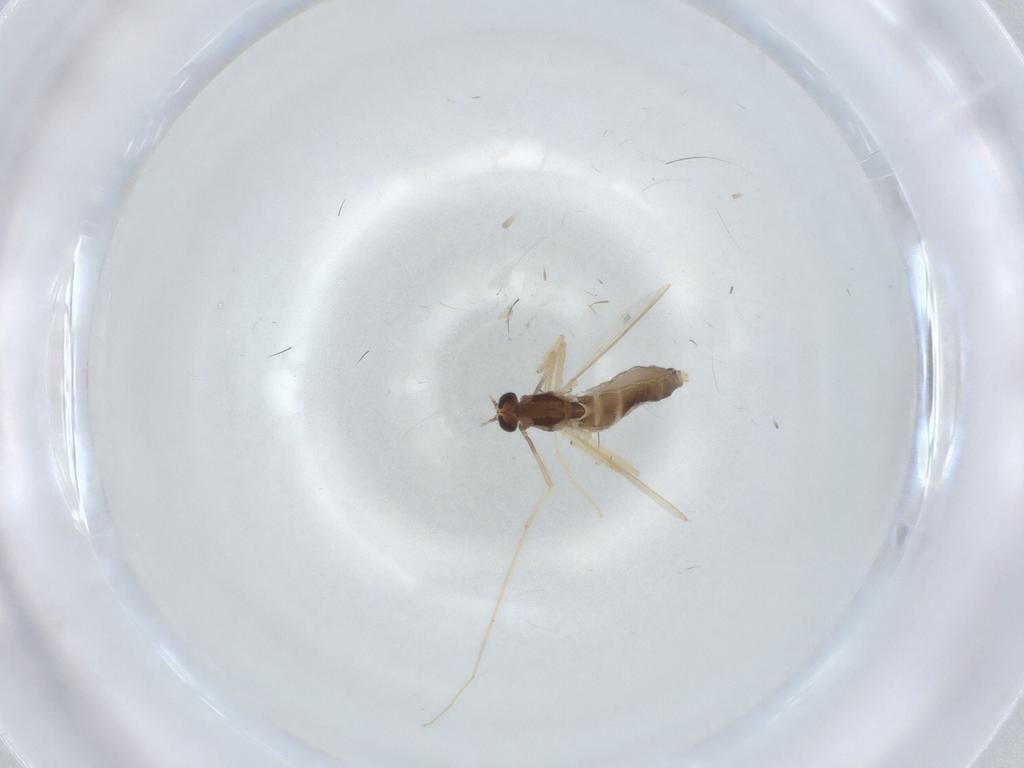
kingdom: Animalia
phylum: Arthropoda
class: Insecta
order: Diptera
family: Chironomidae
